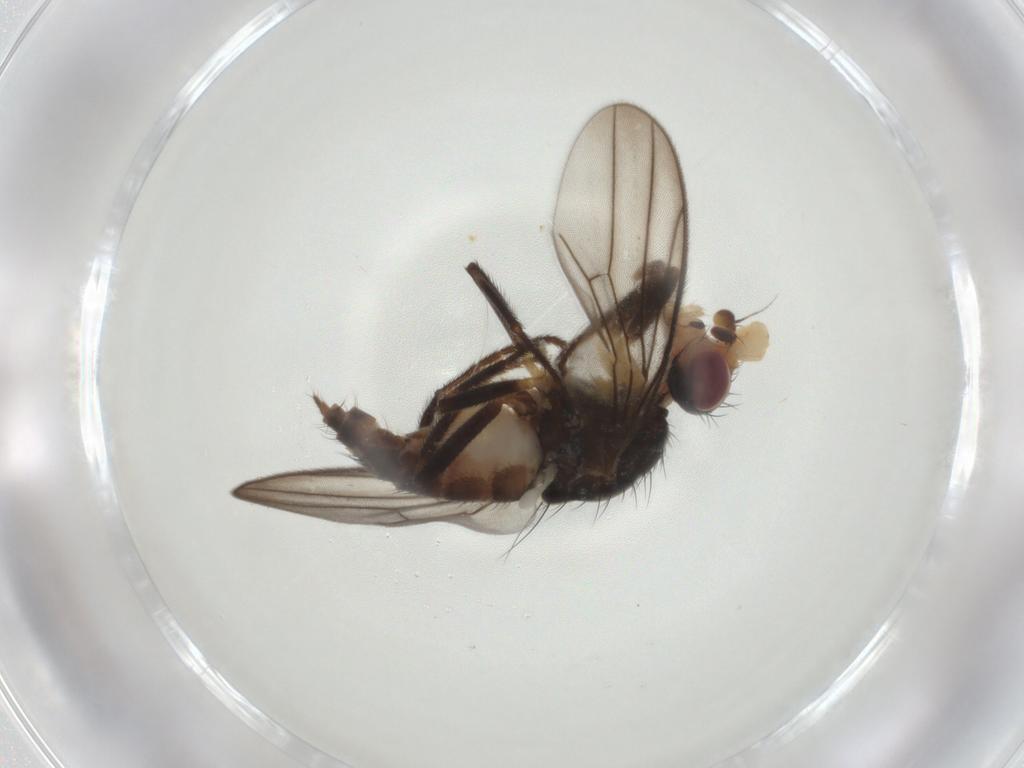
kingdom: Animalia
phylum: Arthropoda
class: Insecta
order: Diptera
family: Chloropidae
